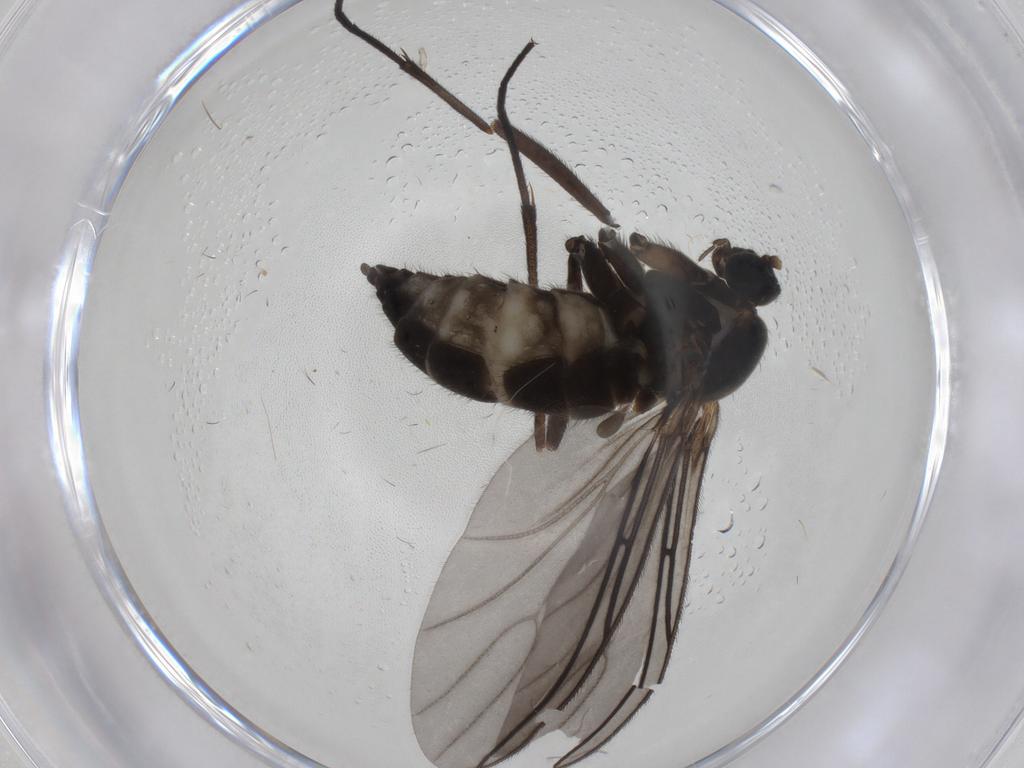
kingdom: Animalia
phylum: Arthropoda
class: Insecta
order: Diptera
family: Sciaridae
